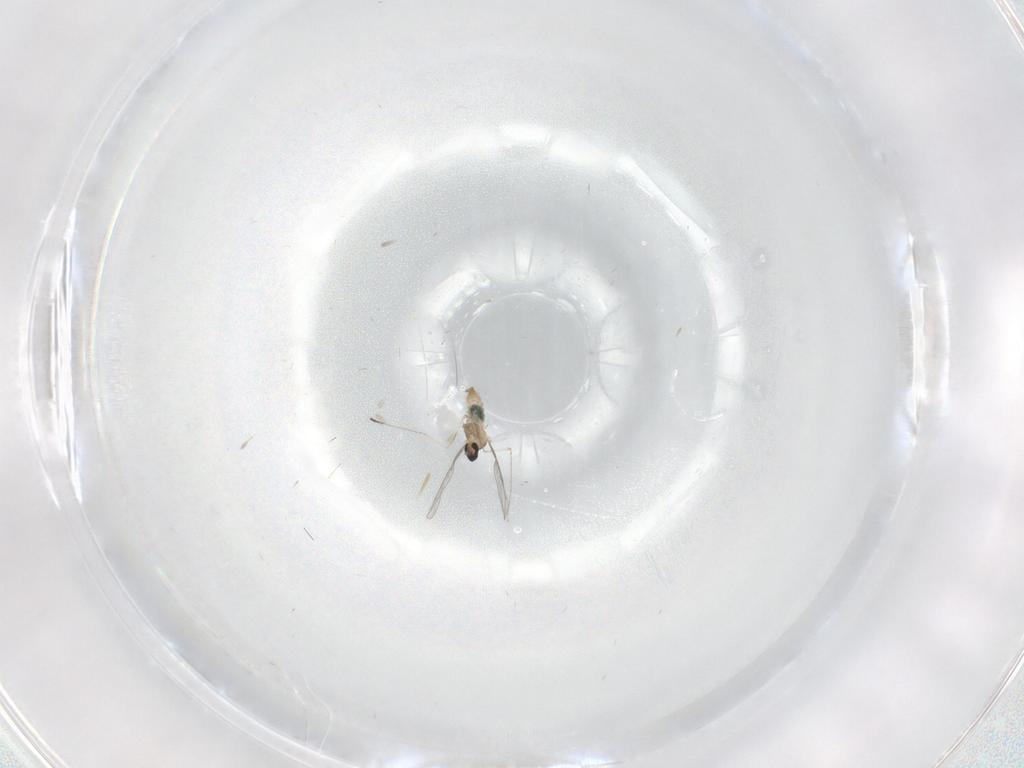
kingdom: Animalia
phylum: Arthropoda
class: Insecta
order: Diptera
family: Cecidomyiidae
